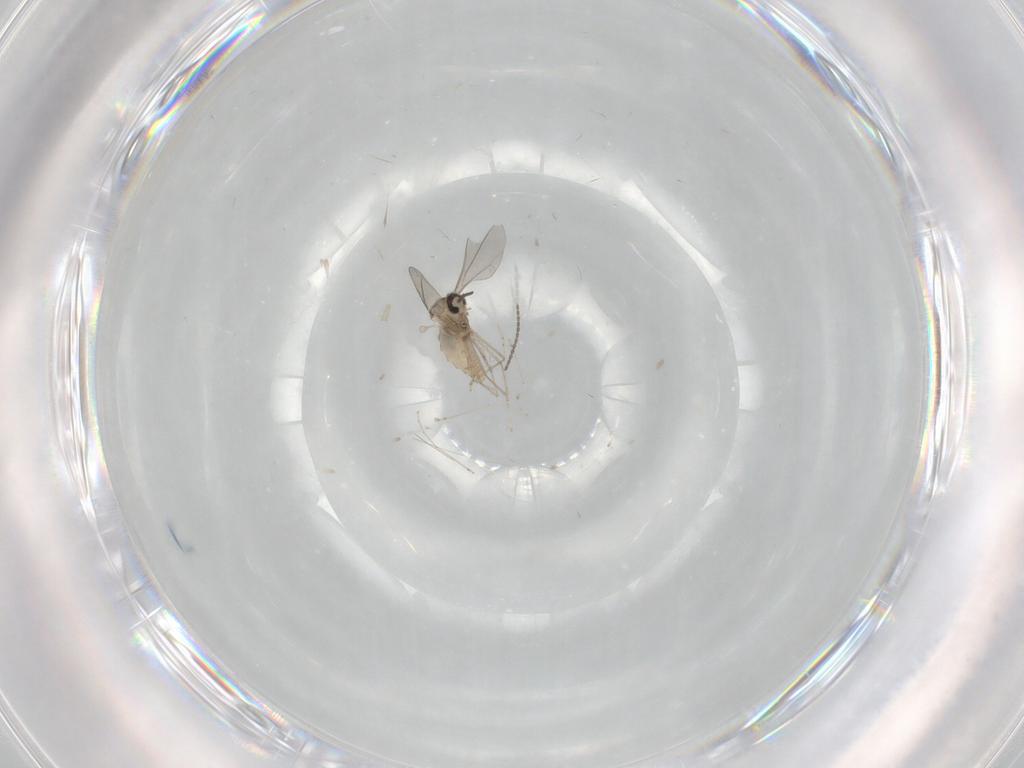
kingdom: Animalia
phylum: Arthropoda
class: Insecta
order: Diptera
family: Cecidomyiidae
